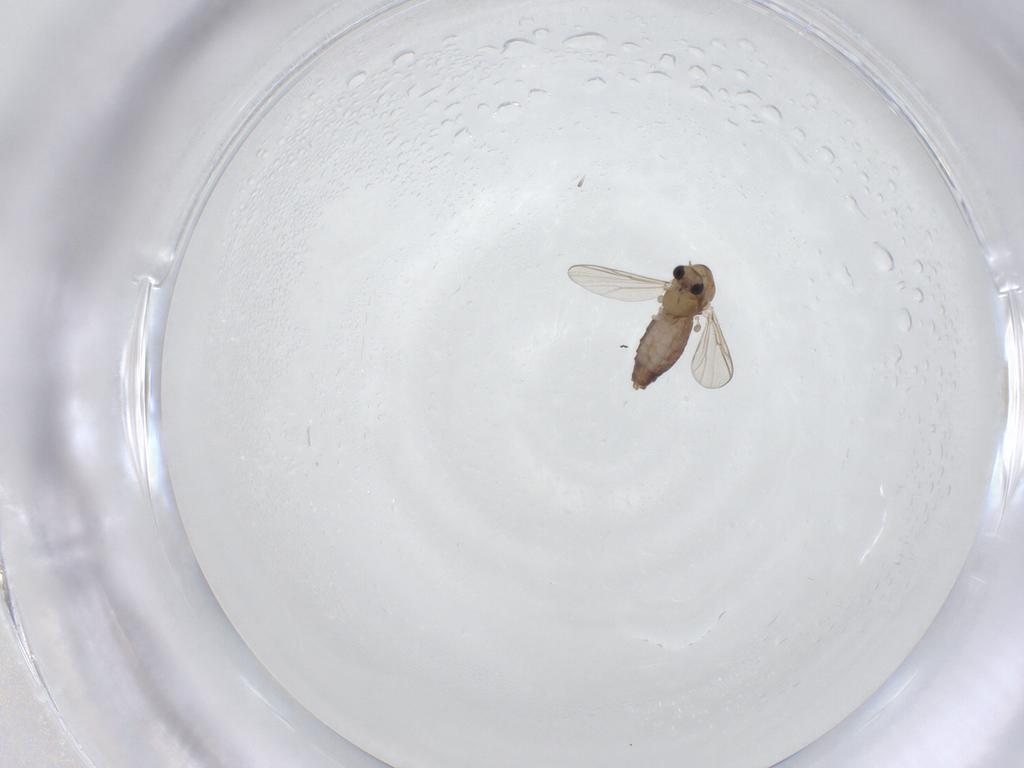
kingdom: Animalia
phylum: Arthropoda
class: Insecta
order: Diptera
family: Chironomidae
